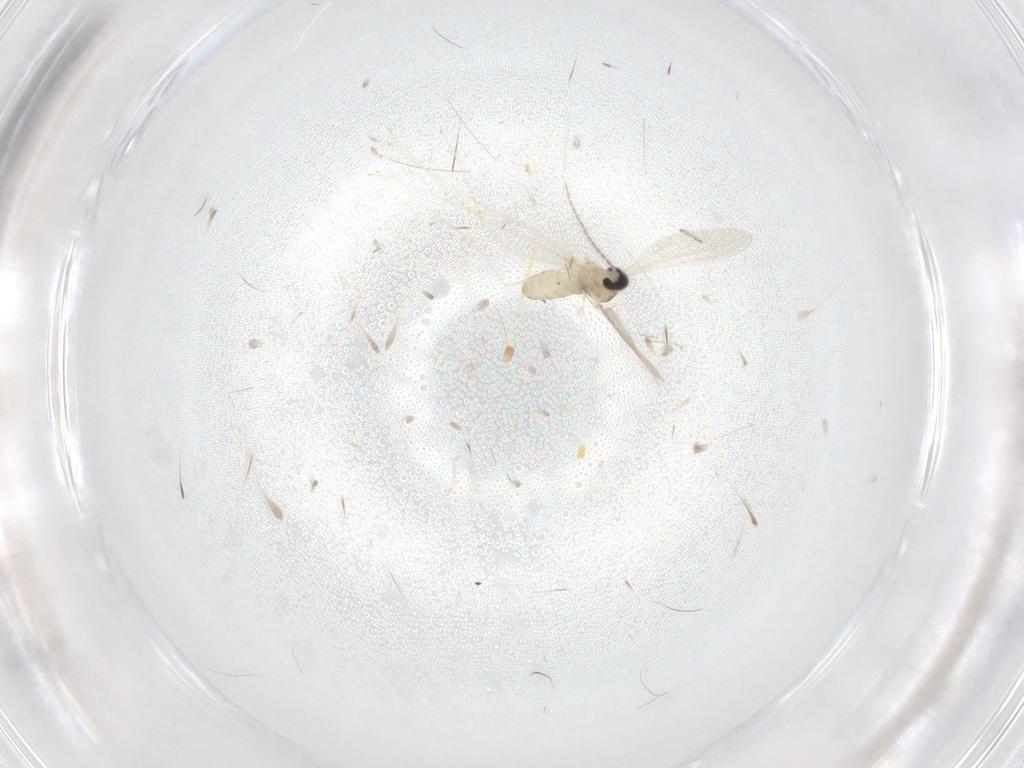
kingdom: Animalia
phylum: Arthropoda
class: Insecta
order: Diptera
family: Cecidomyiidae
